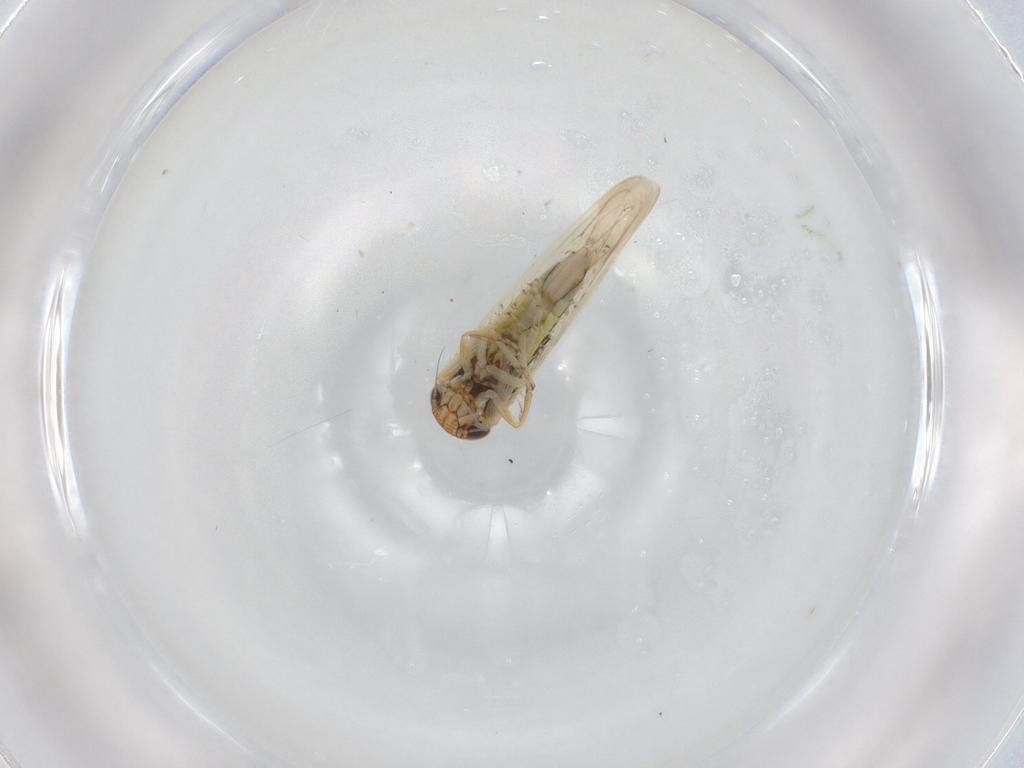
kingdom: Animalia
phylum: Arthropoda
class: Insecta
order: Hemiptera
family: Cicadellidae
